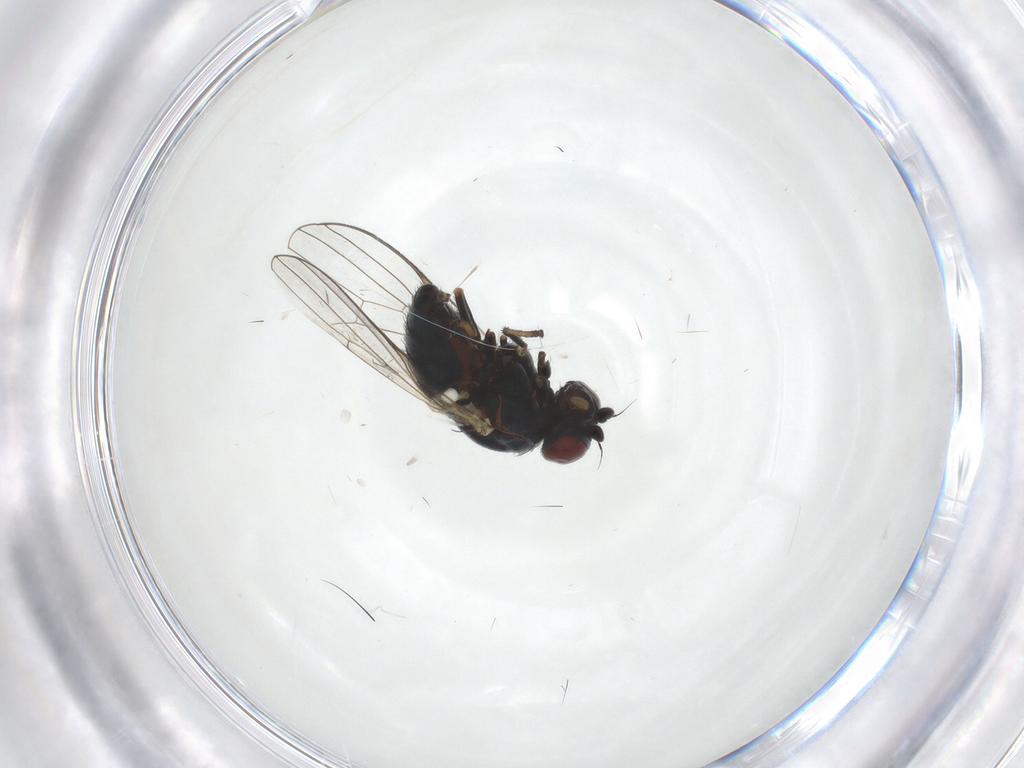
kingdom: Animalia
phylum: Arthropoda
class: Insecta
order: Diptera
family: Chamaemyiidae
